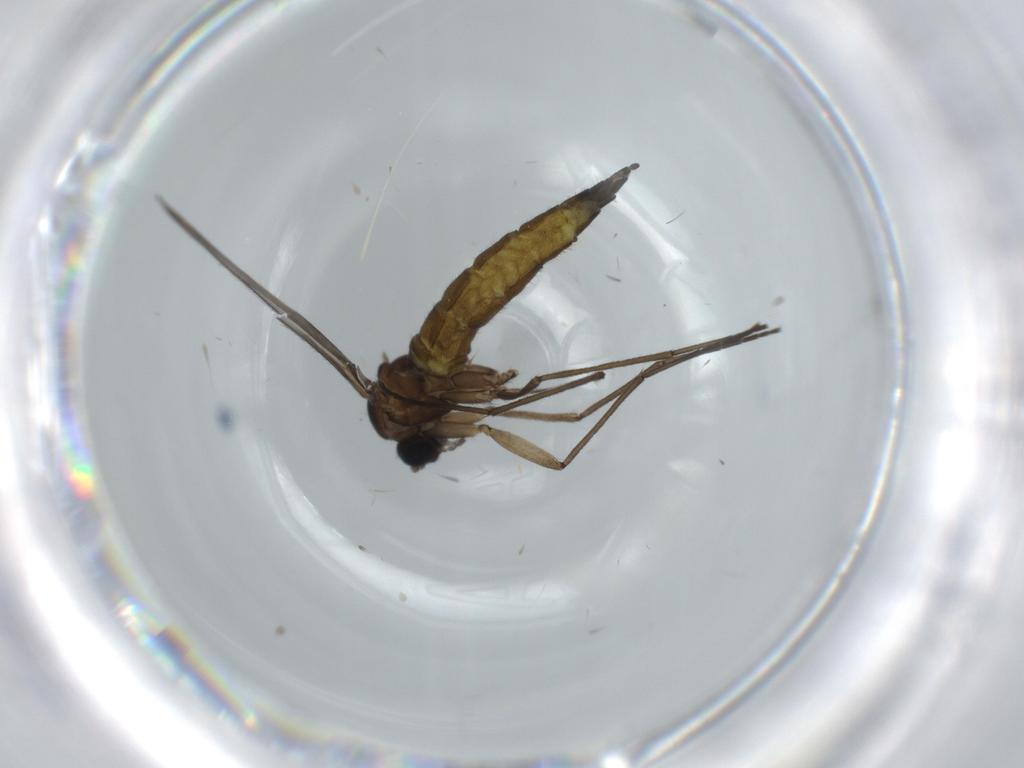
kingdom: Animalia
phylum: Arthropoda
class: Insecta
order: Diptera
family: Sciaridae
